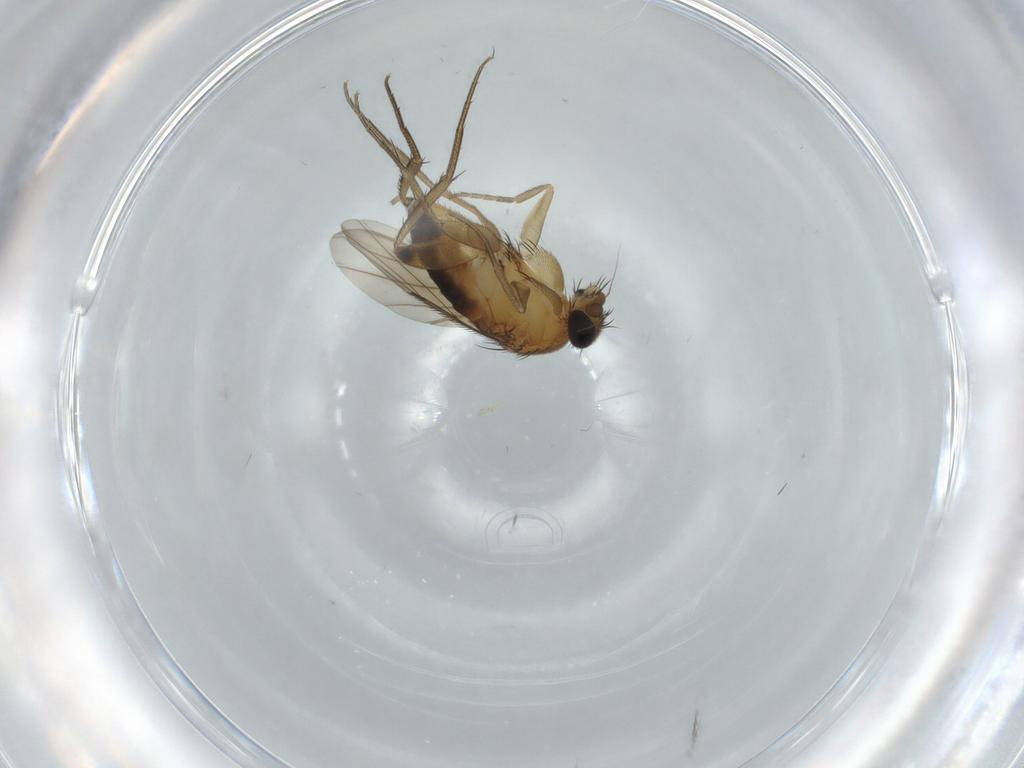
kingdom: Animalia
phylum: Arthropoda
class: Insecta
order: Diptera
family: Phoridae
